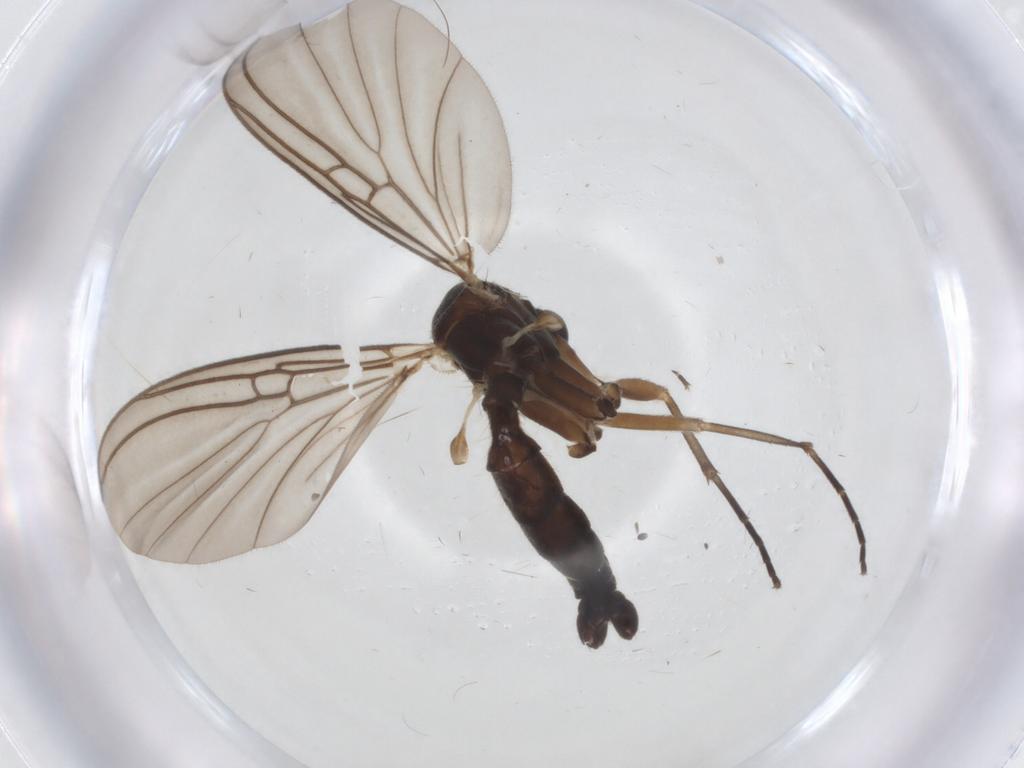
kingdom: Animalia
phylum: Arthropoda
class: Insecta
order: Diptera
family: Mycetophilidae
